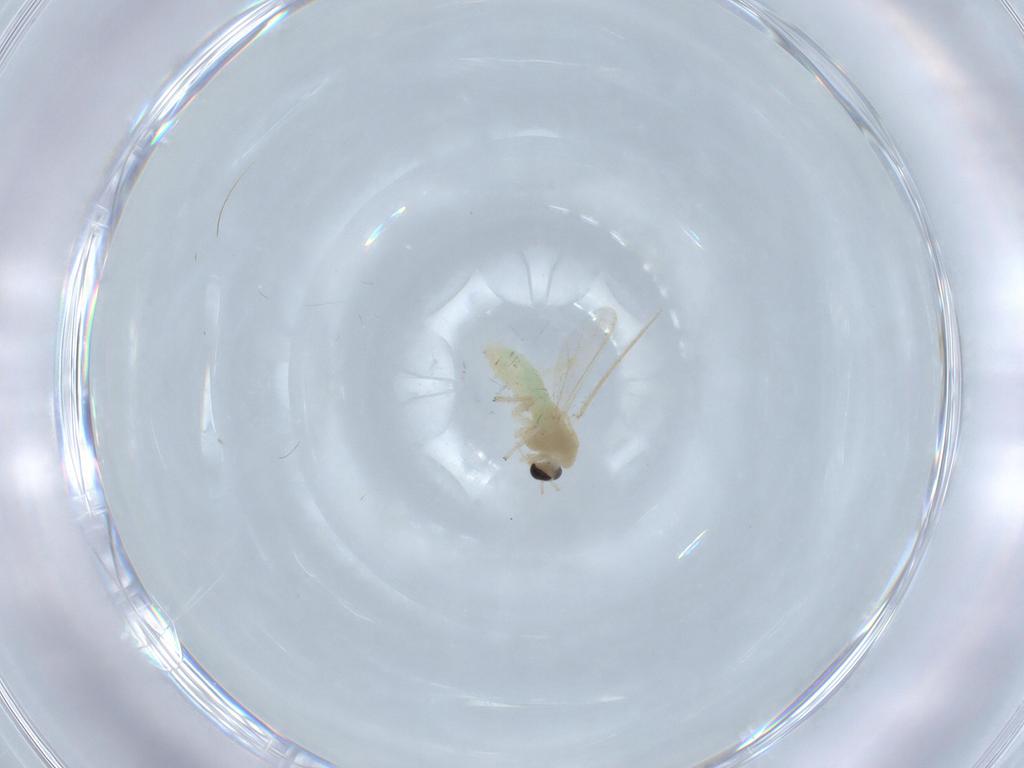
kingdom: Animalia
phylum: Arthropoda
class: Insecta
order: Diptera
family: Chironomidae
